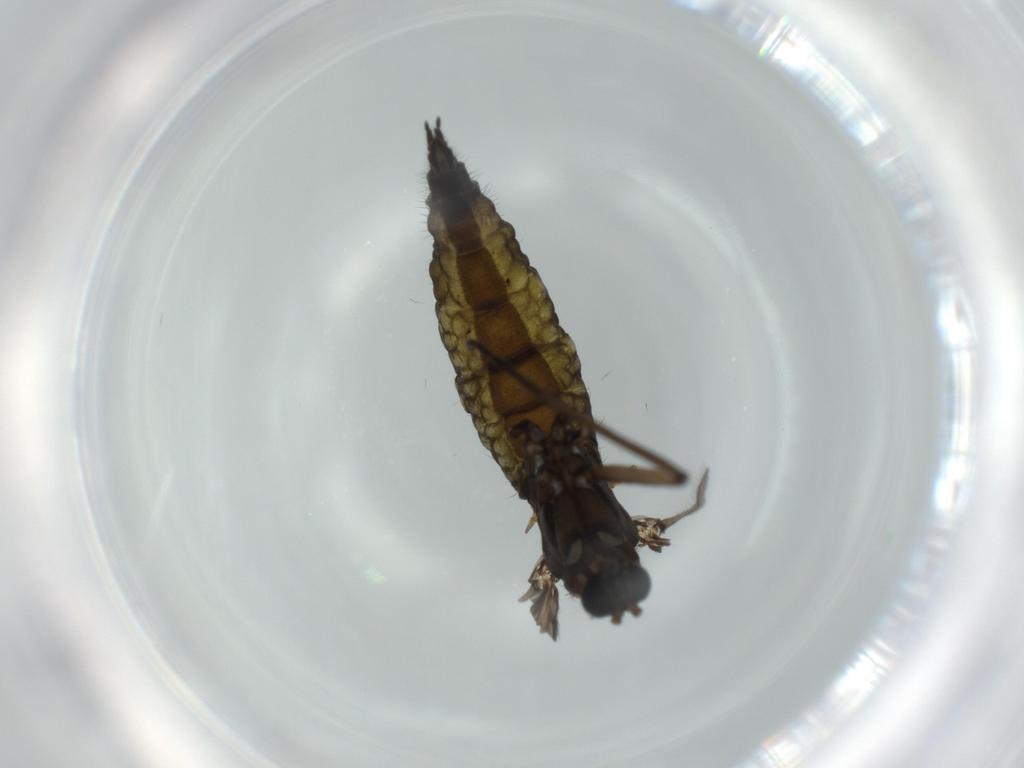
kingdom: Animalia
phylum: Arthropoda
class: Insecta
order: Diptera
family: Sciaridae
